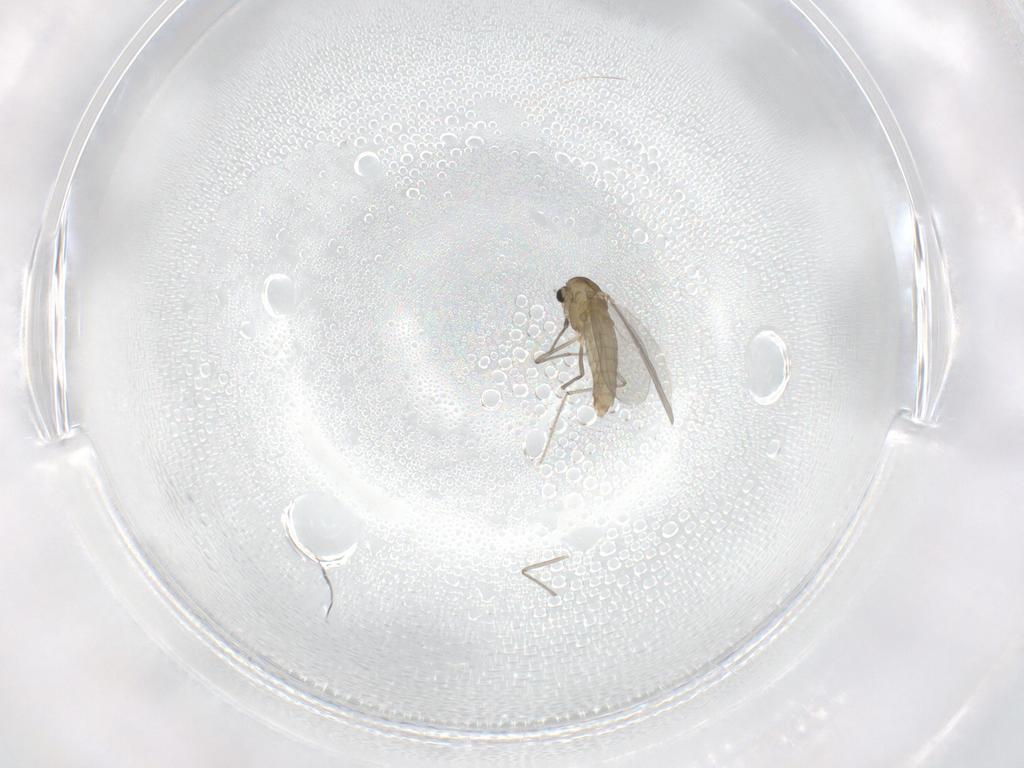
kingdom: Animalia
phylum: Arthropoda
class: Insecta
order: Diptera
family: Chironomidae
